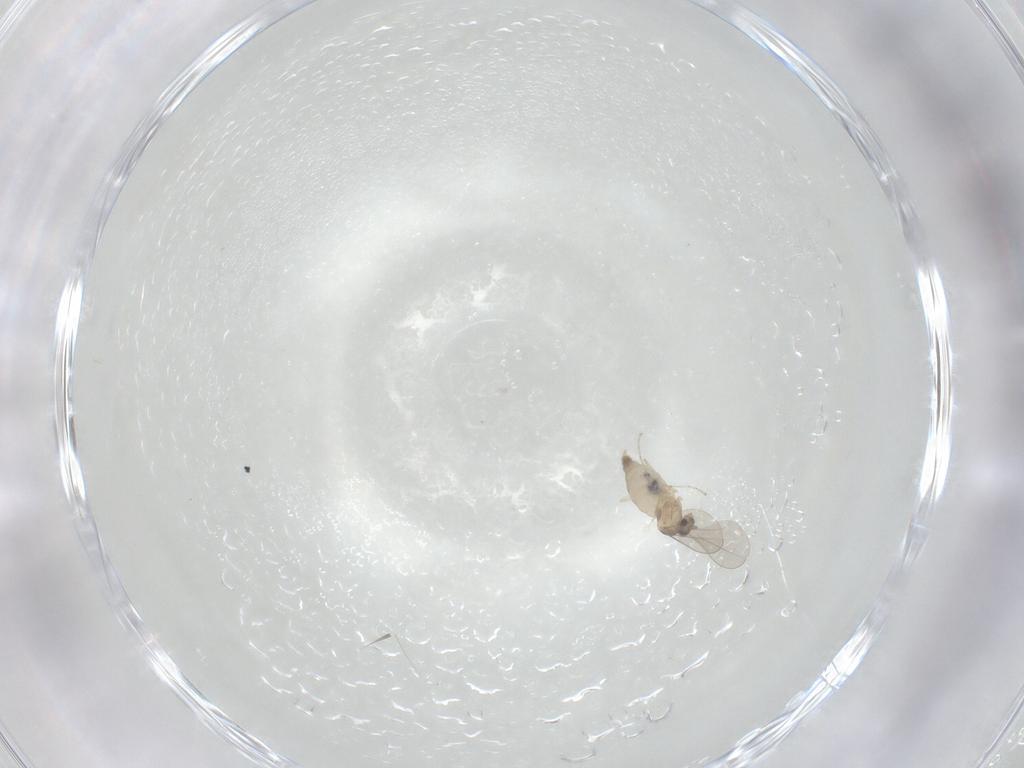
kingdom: Animalia
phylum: Arthropoda
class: Insecta
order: Diptera
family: Cecidomyiidae
